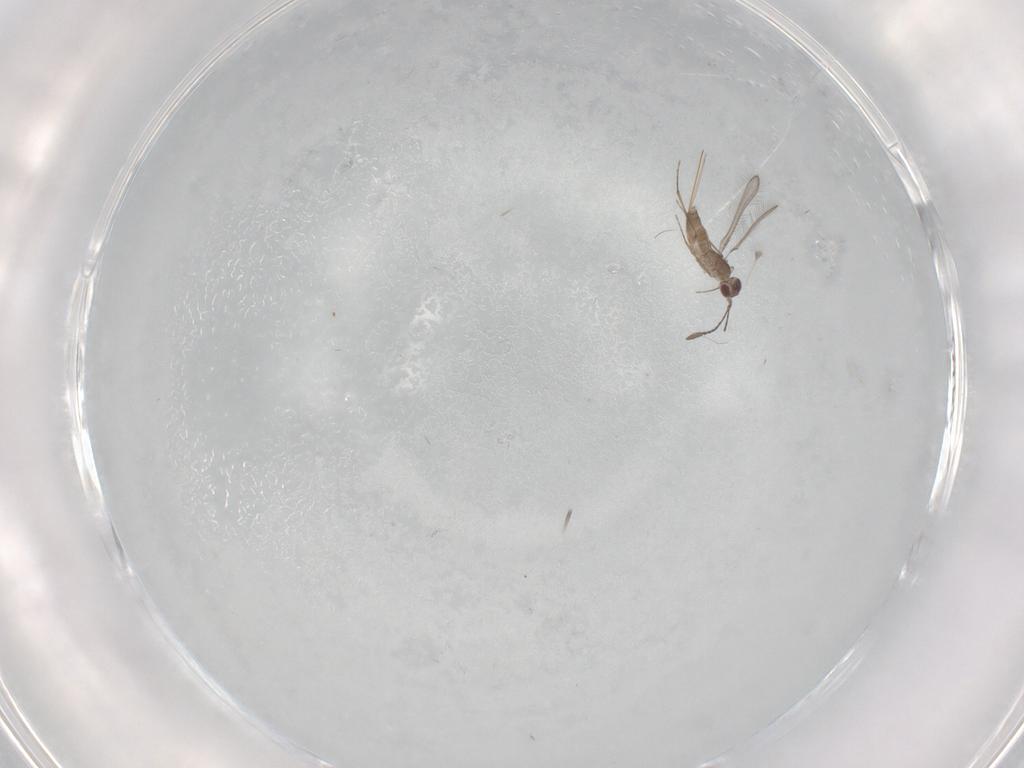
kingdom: Animalia
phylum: Arthropoda
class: Insecta
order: Hymenoptera
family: Mymaridae
